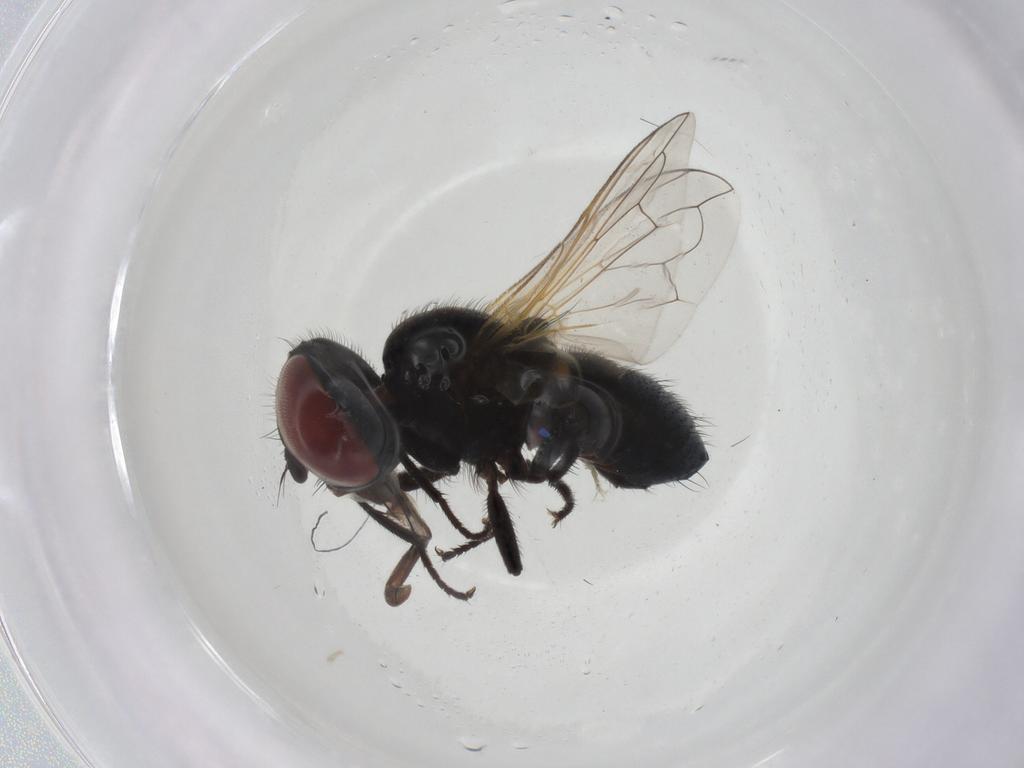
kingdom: Animalia
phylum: Arthropoda
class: Insecta
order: Diptera
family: Tachinidae
